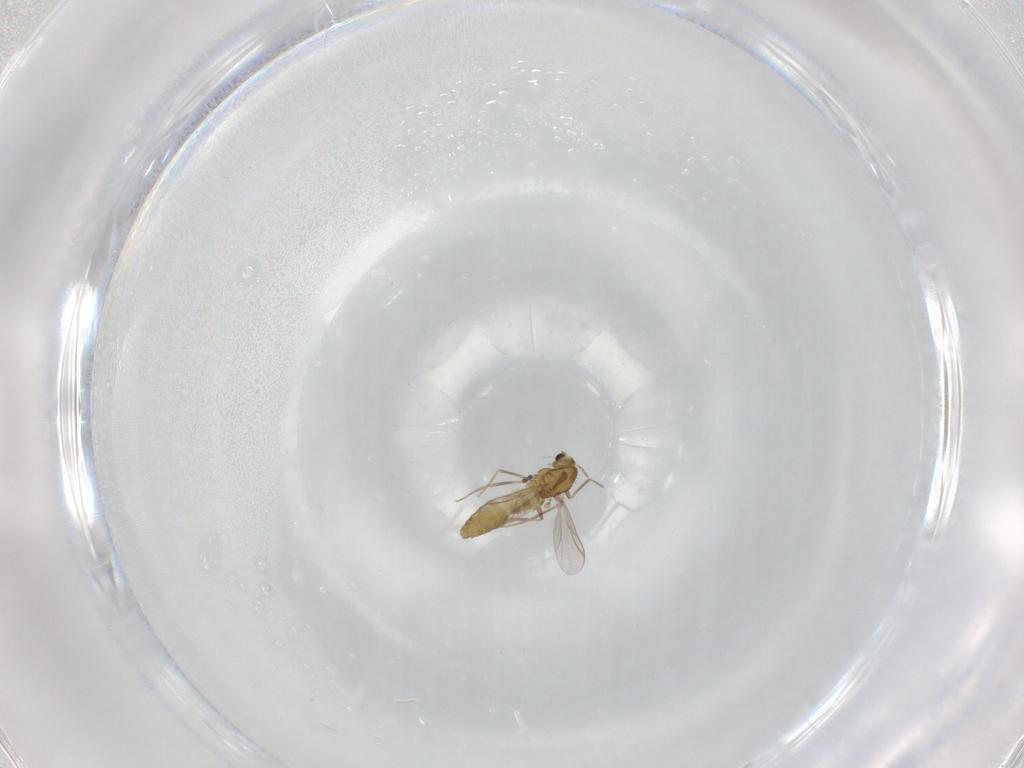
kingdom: Animalia
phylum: Arthropoda
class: Insecta
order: Diptera
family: Chironomidae
